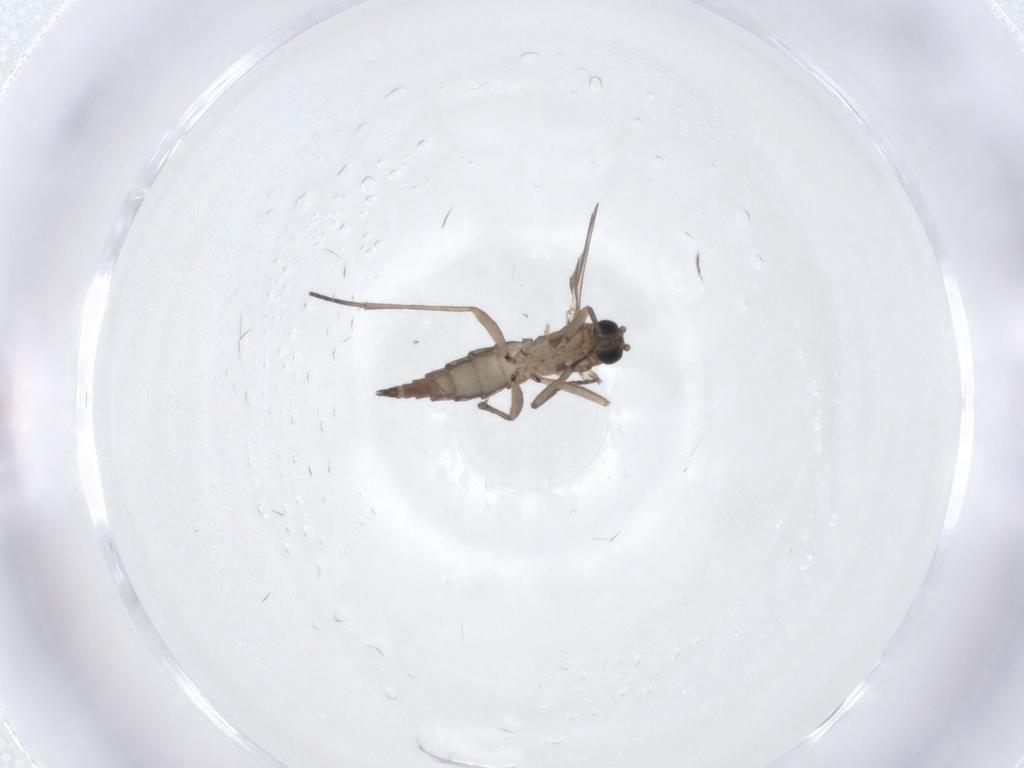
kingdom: Animalia
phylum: Arthropoda
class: Insecta
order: Diptera
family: Sciaridae
